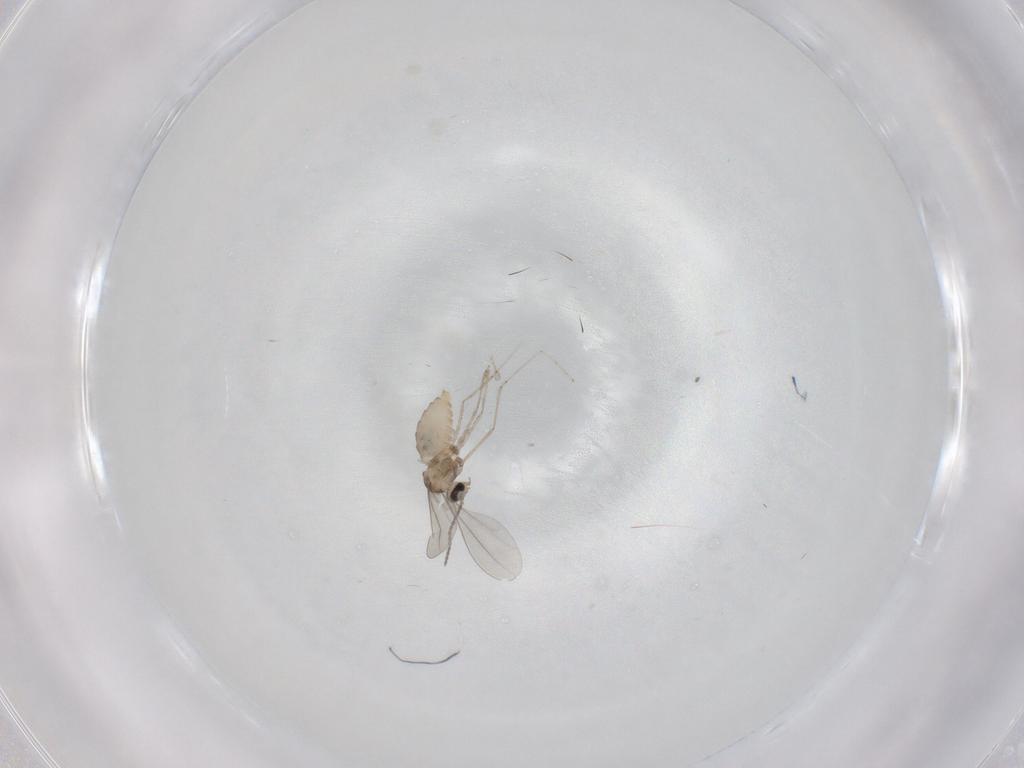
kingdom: Animalia
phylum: Arthropoda
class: Insecta
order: Diptera
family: Cecidomyiidae
